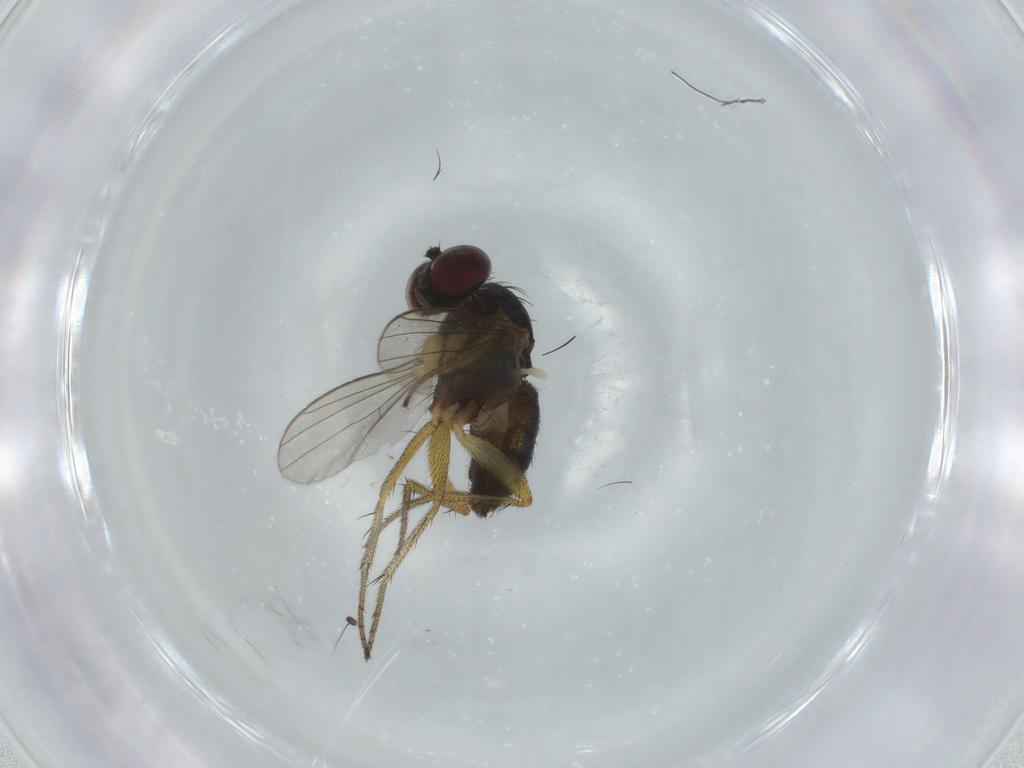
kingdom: Animalia
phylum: Arthropoda
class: Insecta
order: Diptera
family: Dolichopodidae
